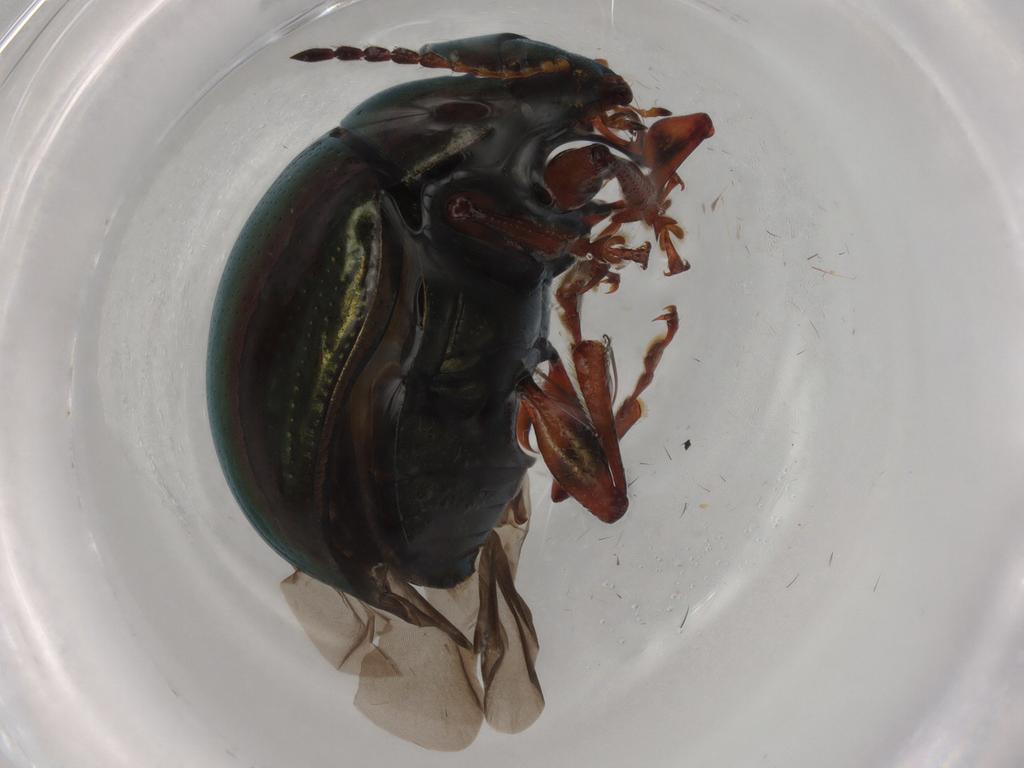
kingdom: Animalia
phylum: Arthropoda
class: Insecta
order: Coleoptera
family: Chrysomelidae
